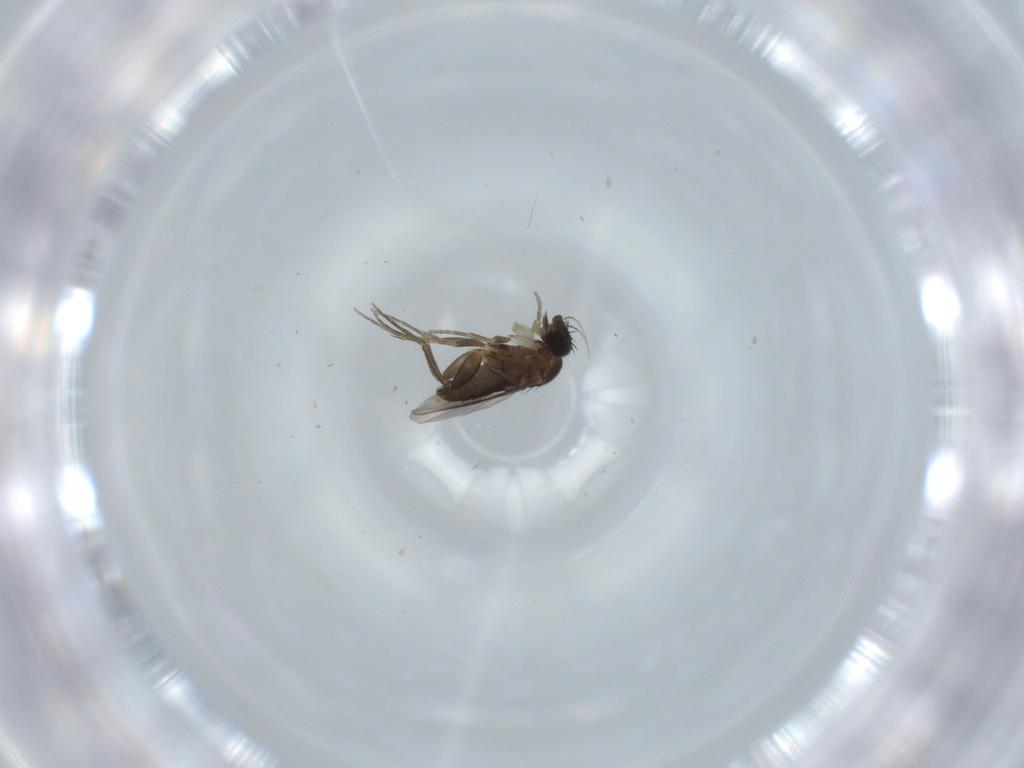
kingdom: Animalia
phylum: Arthropoda
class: Insecta
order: Diptera
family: Phoridae
